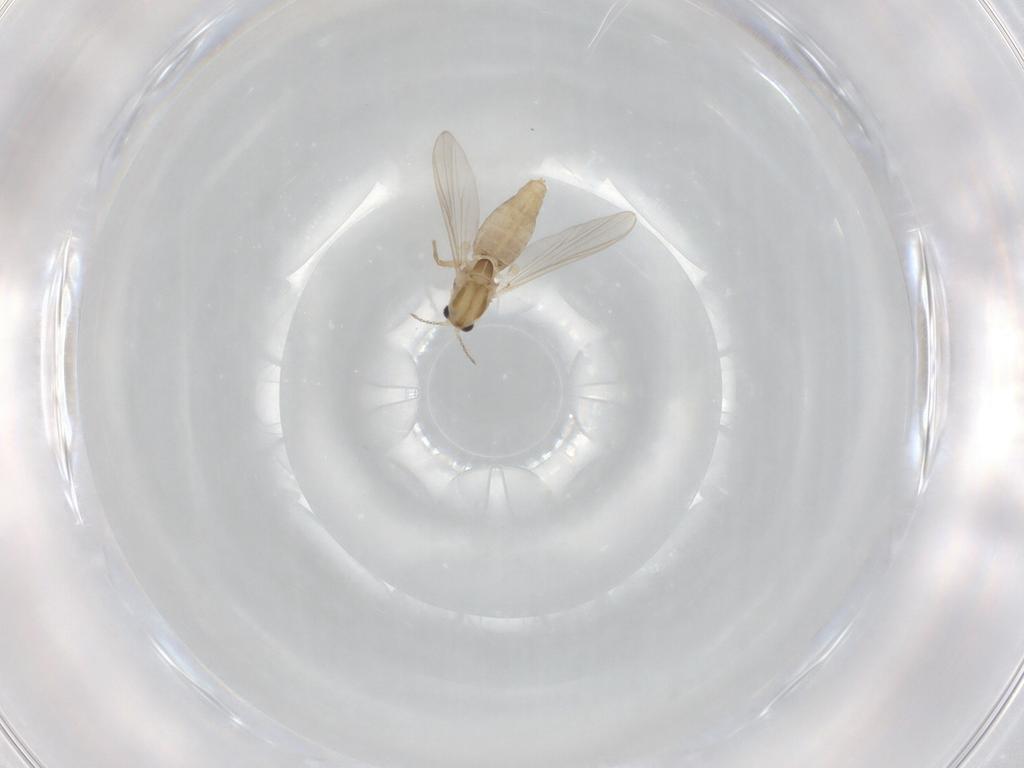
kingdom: Animalia
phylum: Arthropoda
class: Insecta
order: Diptera
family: Chironomidae
